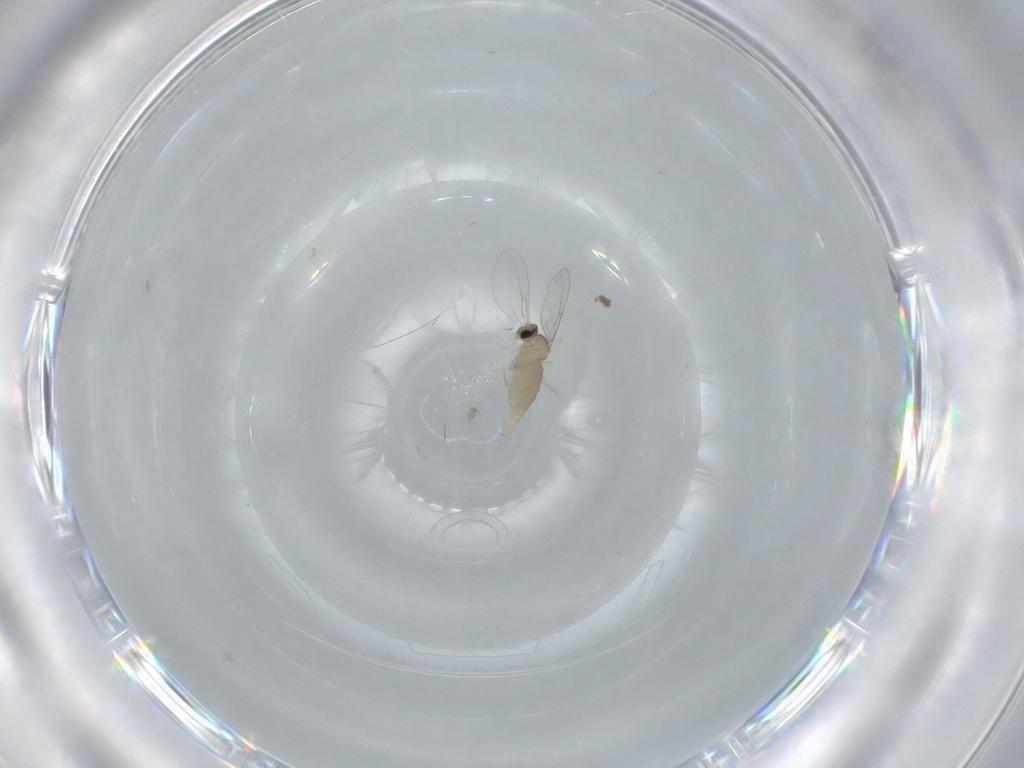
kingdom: Animalia
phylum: Arthropoda
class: Insecta
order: Diptera
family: Cecidomyiidae
